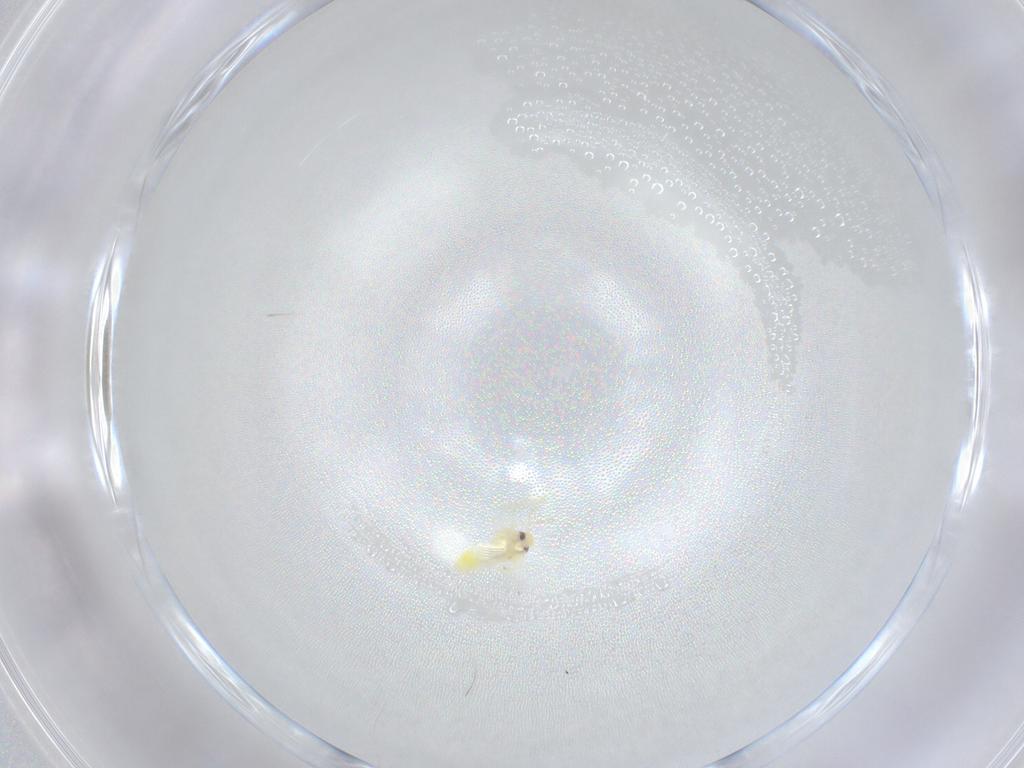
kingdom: Animalia
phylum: Arthropoda
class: Insecta
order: Hemiptera
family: Aleyrodidae
